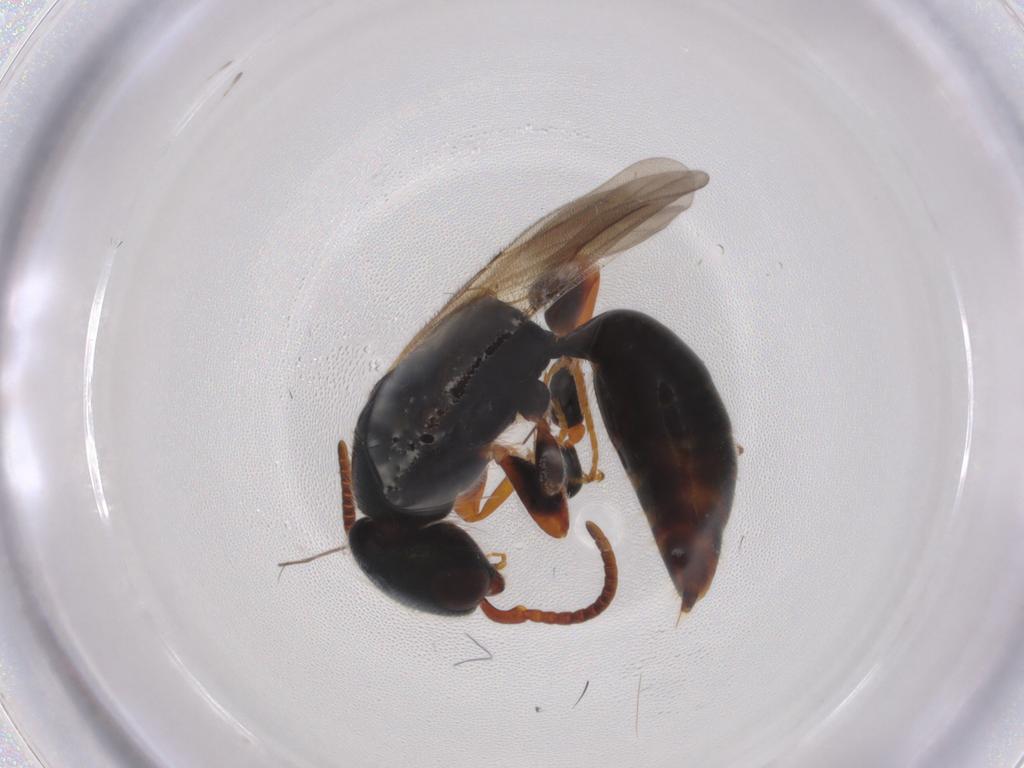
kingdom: Animalia
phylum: Arthropoda
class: Insecta
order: Hymenoptera
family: Bethylidae
